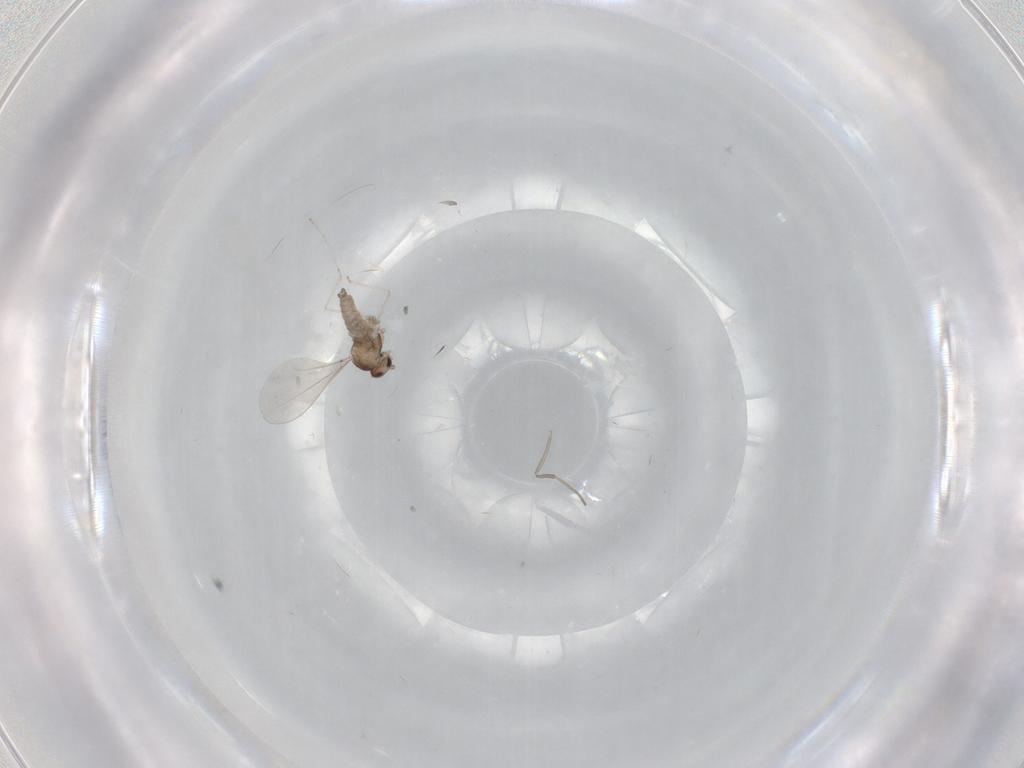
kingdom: Animalia
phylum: Arthropoda
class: Insecta
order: Diptera
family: Cecidomyiidae
